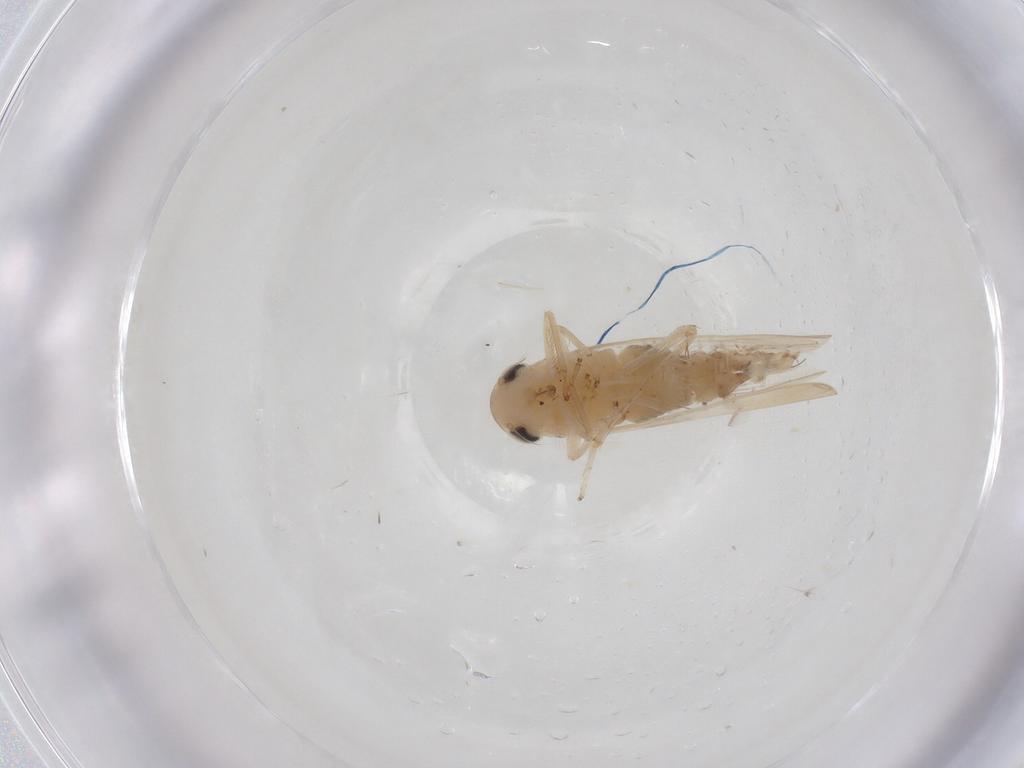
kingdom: Animalia
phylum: Arthropoda
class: Insecta
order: Hemiptera
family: Cicadellidae
